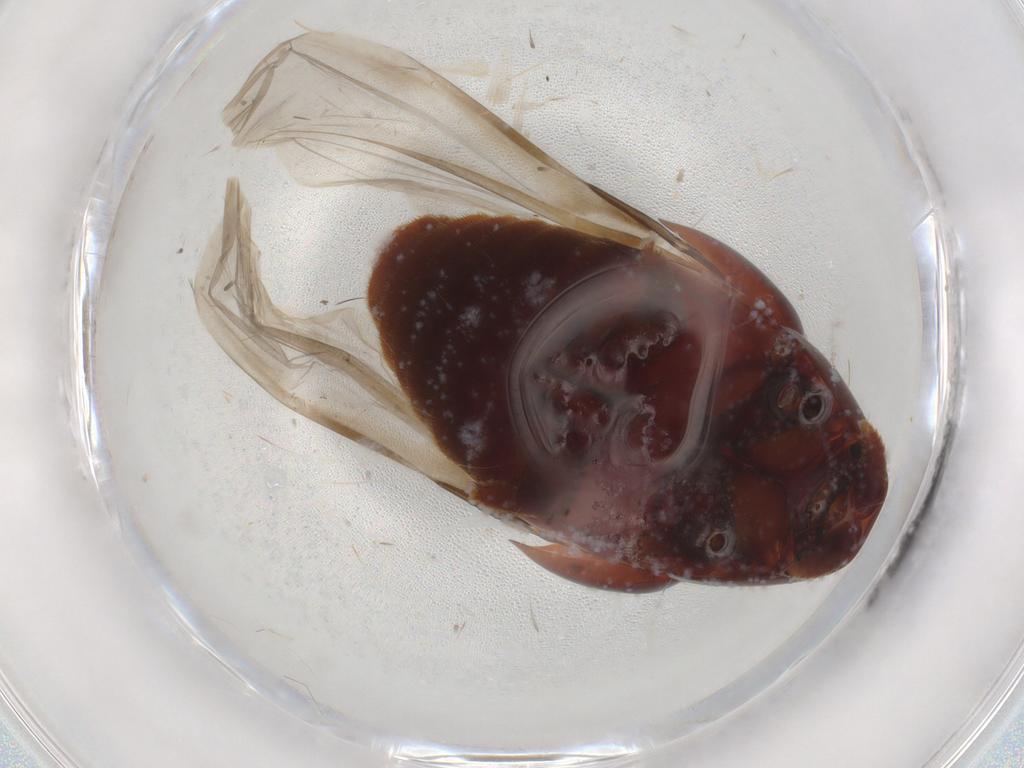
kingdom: Animalia
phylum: Arthropoda
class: Insecta
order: Coleoptera
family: Staphylinidae
